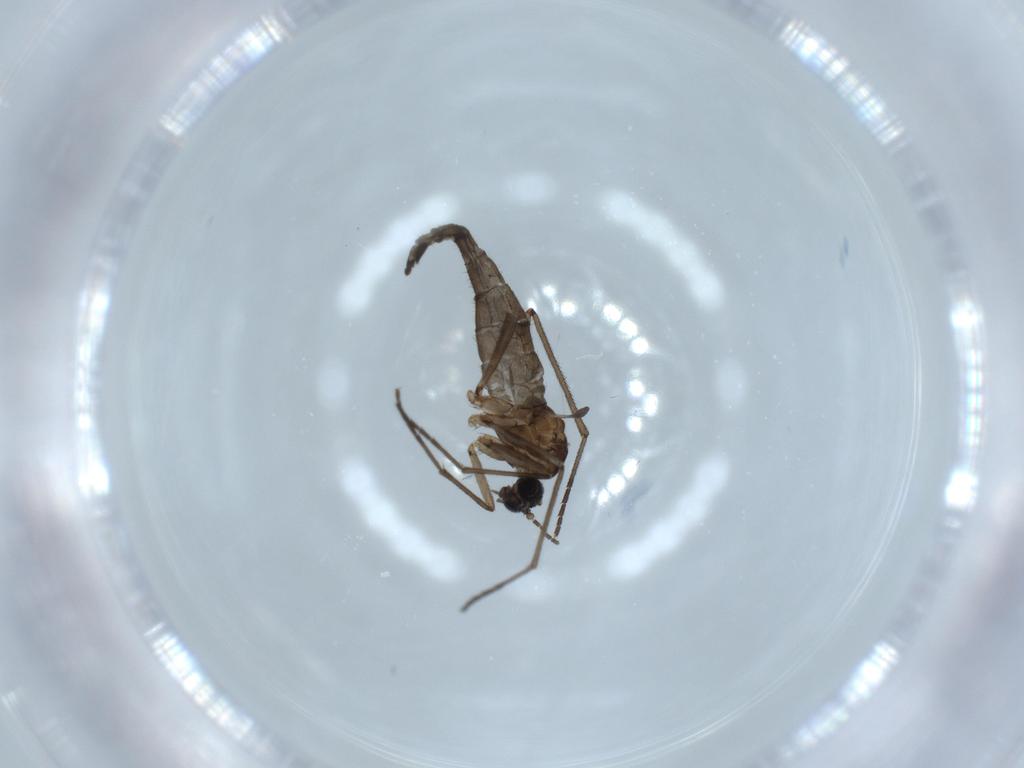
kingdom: Animalia
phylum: Arthropoda
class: Insecta
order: Diptera
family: Sciaridae
